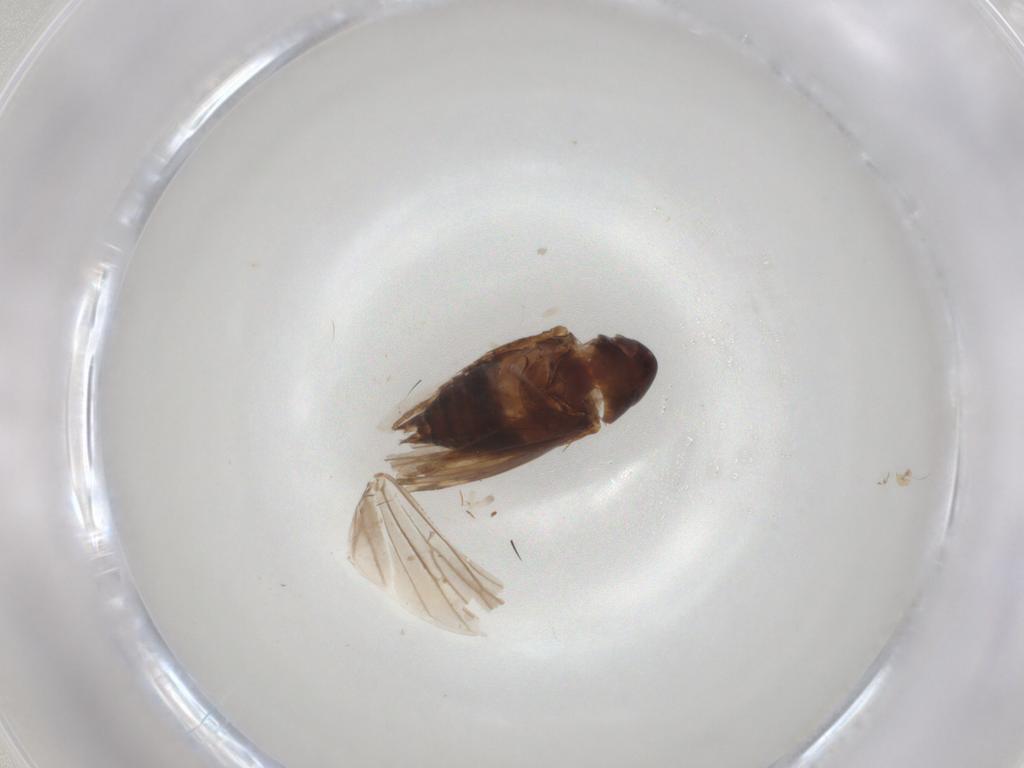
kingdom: Animalia
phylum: Arthropoda
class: Insecta
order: Hemiptera
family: Cicadellidae
